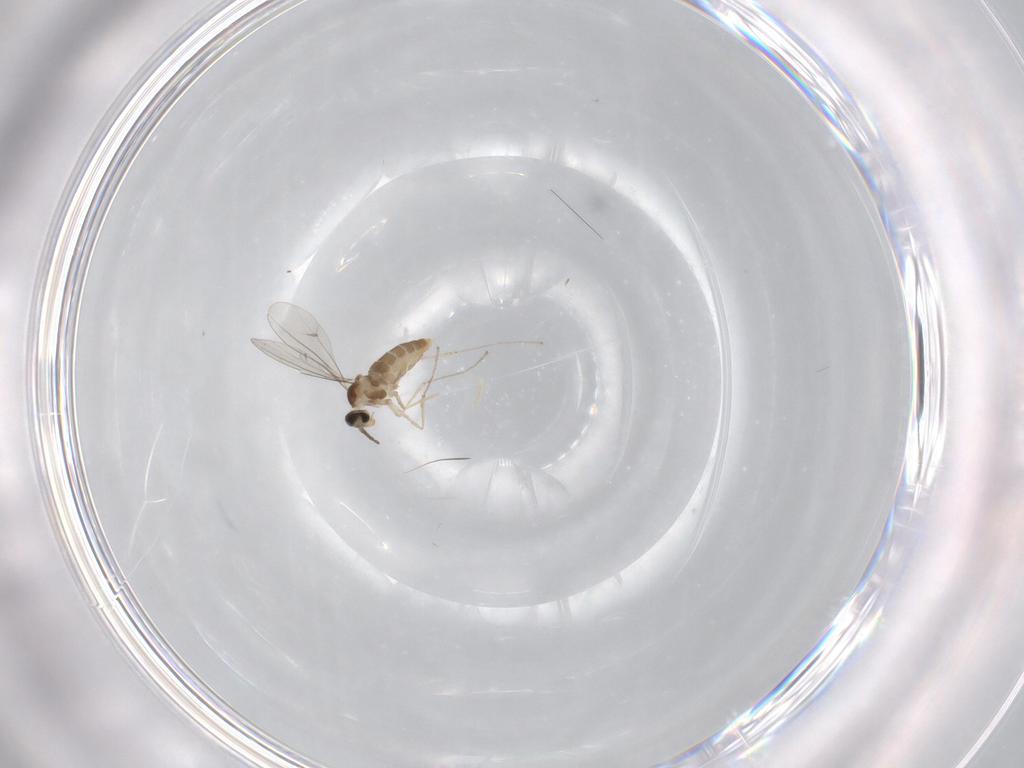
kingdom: Animalia
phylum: Arthropoda
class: Insecta
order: Diptera
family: Cecidomyiidae
